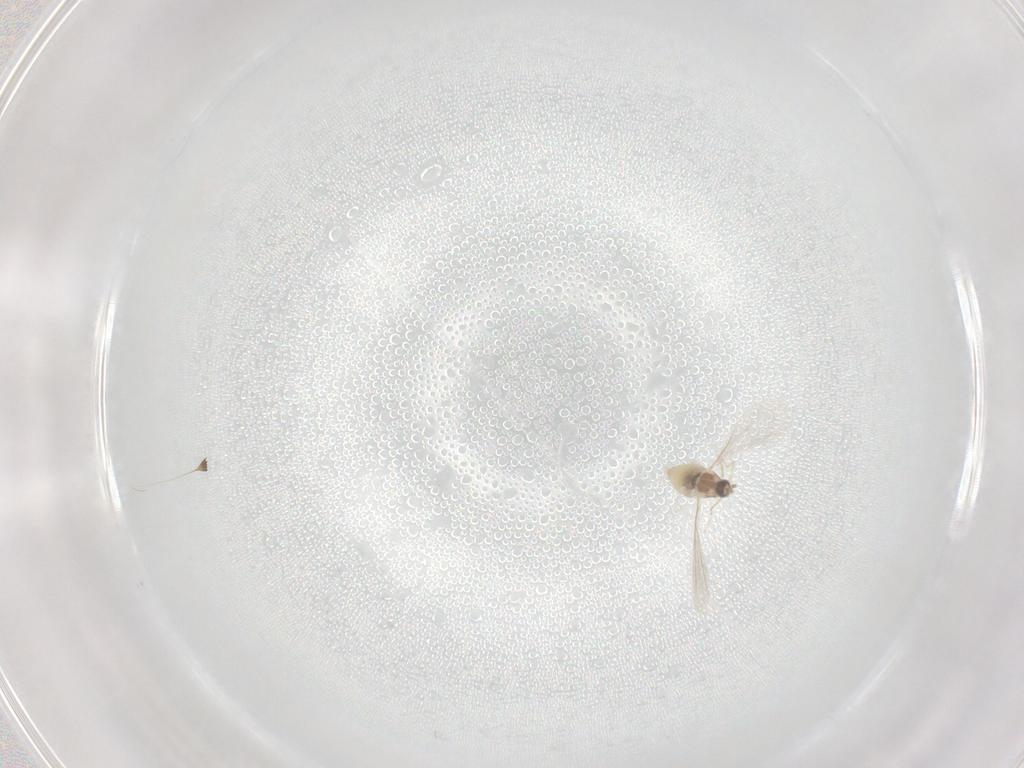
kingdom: Animalia
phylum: Arthropoda
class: Insecta
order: Diptera
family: Cecidomyiidae
